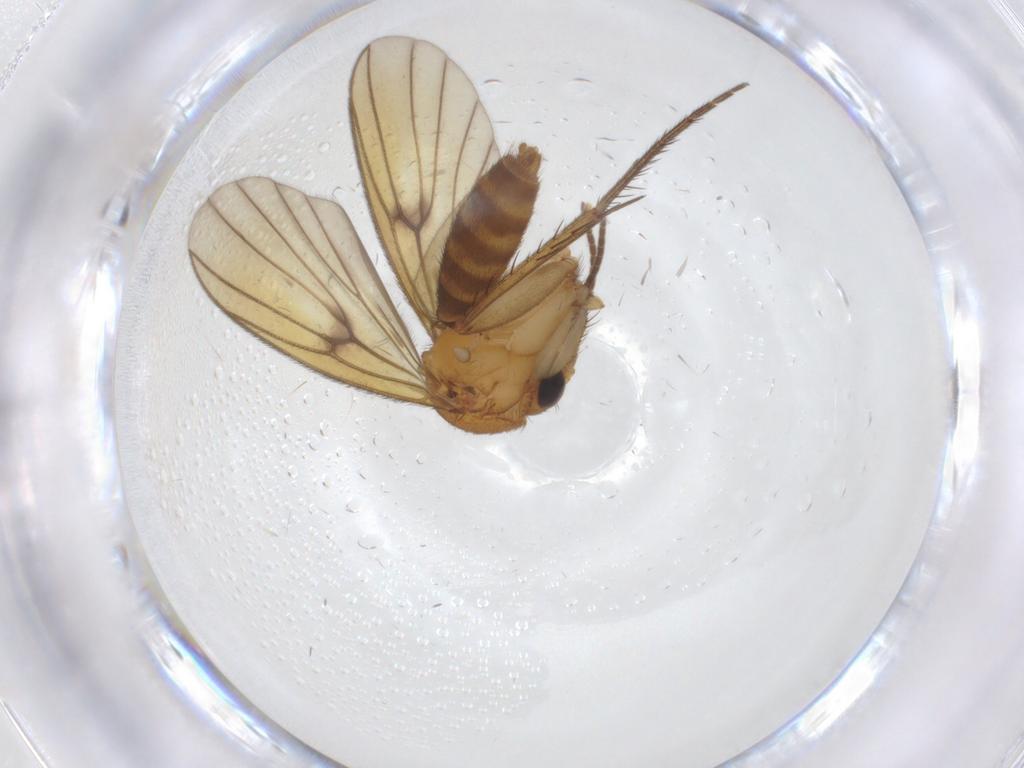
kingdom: Animalia
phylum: Arthropoda
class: Insecta
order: Diptera
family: Mycetophilidae
